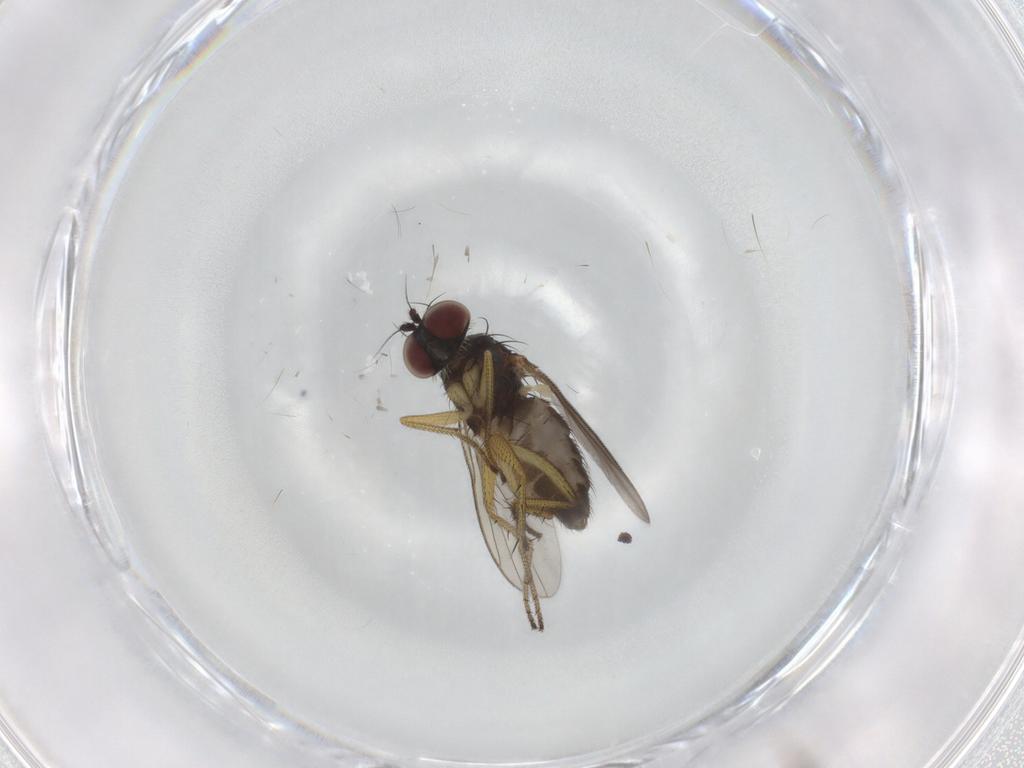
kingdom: Animalia
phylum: Arthropoda
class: Insecta
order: Diptera
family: Dolichopodidae
